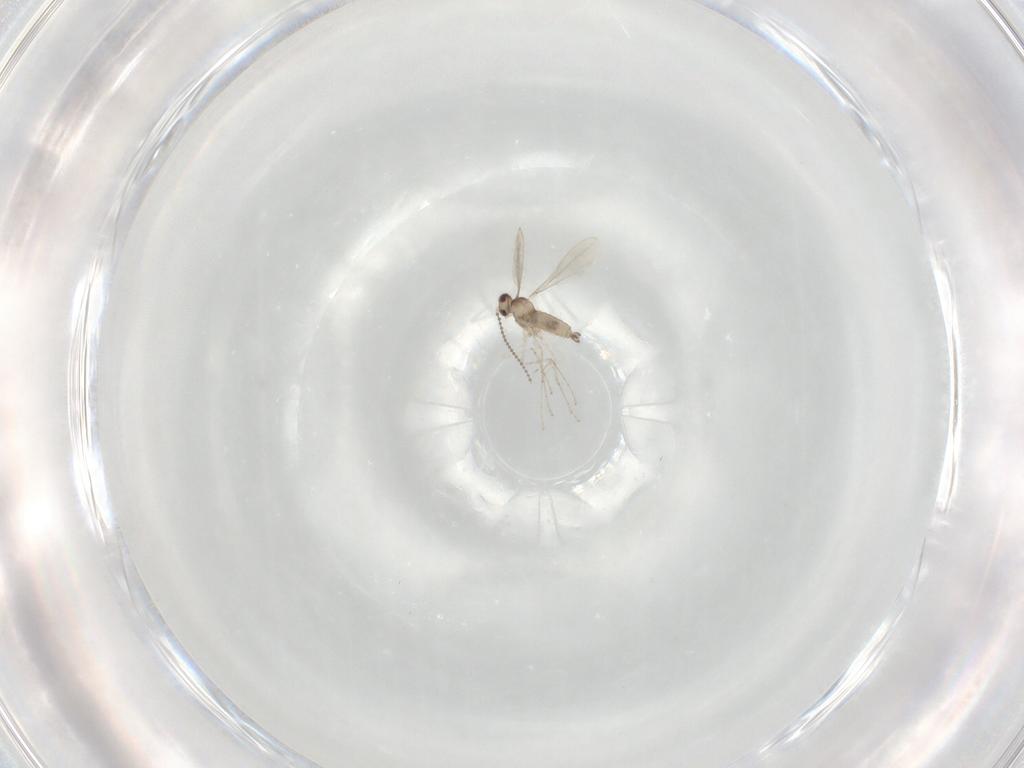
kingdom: Animalia
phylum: Arthropoda
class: Insecta
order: Diptera
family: Cecidomyiidae
